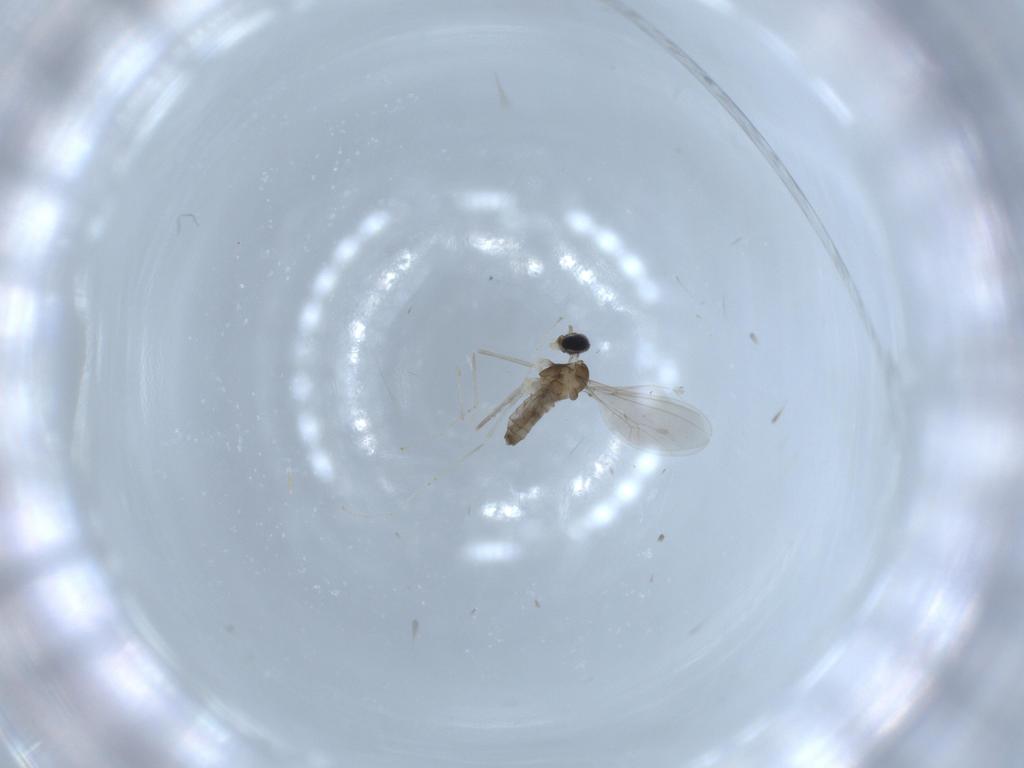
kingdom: Animalia
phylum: Arthropoda
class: Insecta
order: Diptera
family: Cecidomyiidae
